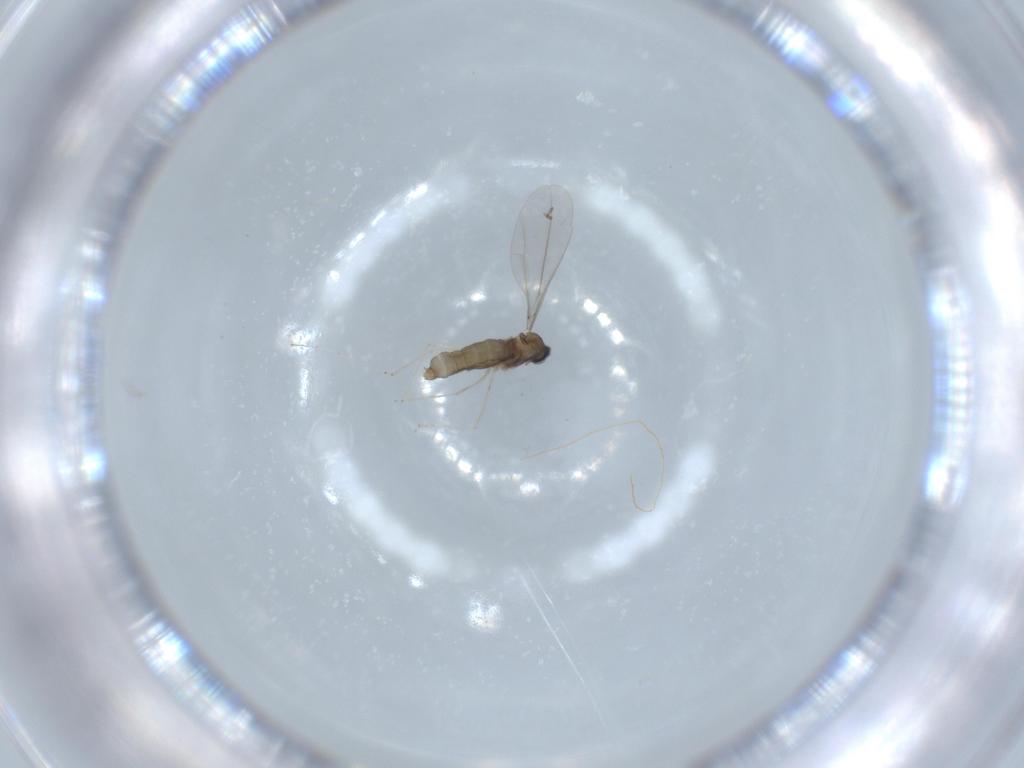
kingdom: Animalia
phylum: Arthropoda
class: Insecta
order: Diptera
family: Cecidomyiidae
